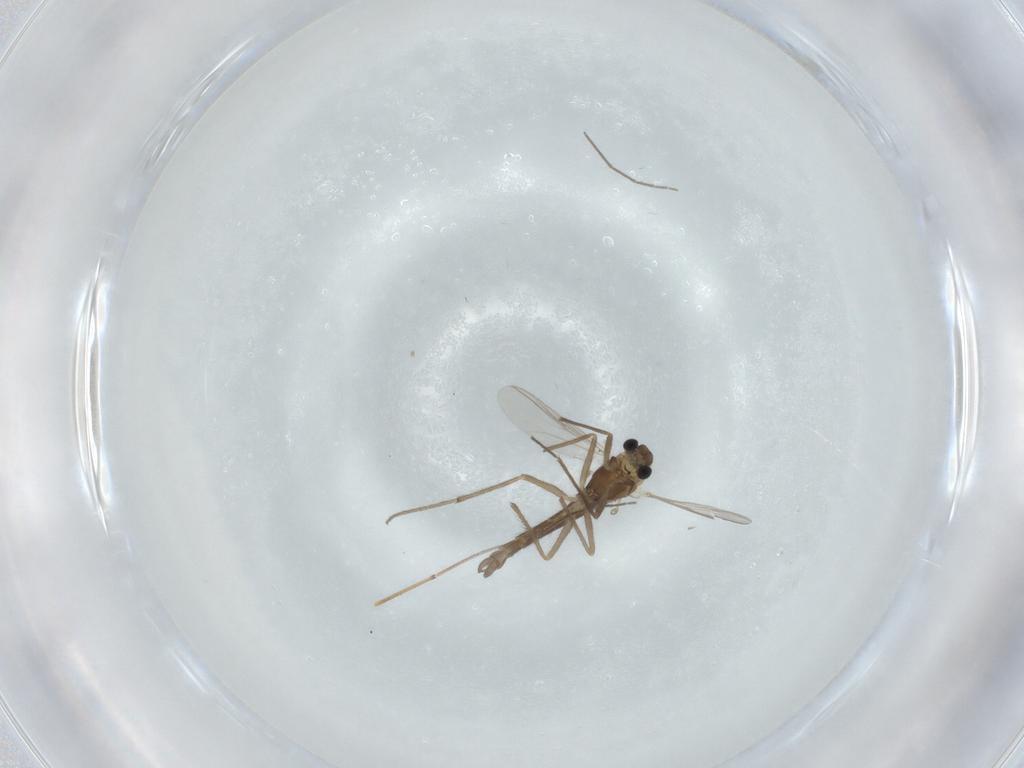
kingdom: Animalia
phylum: Arthropoda
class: Insecta
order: Diptera
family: Chironomidae
